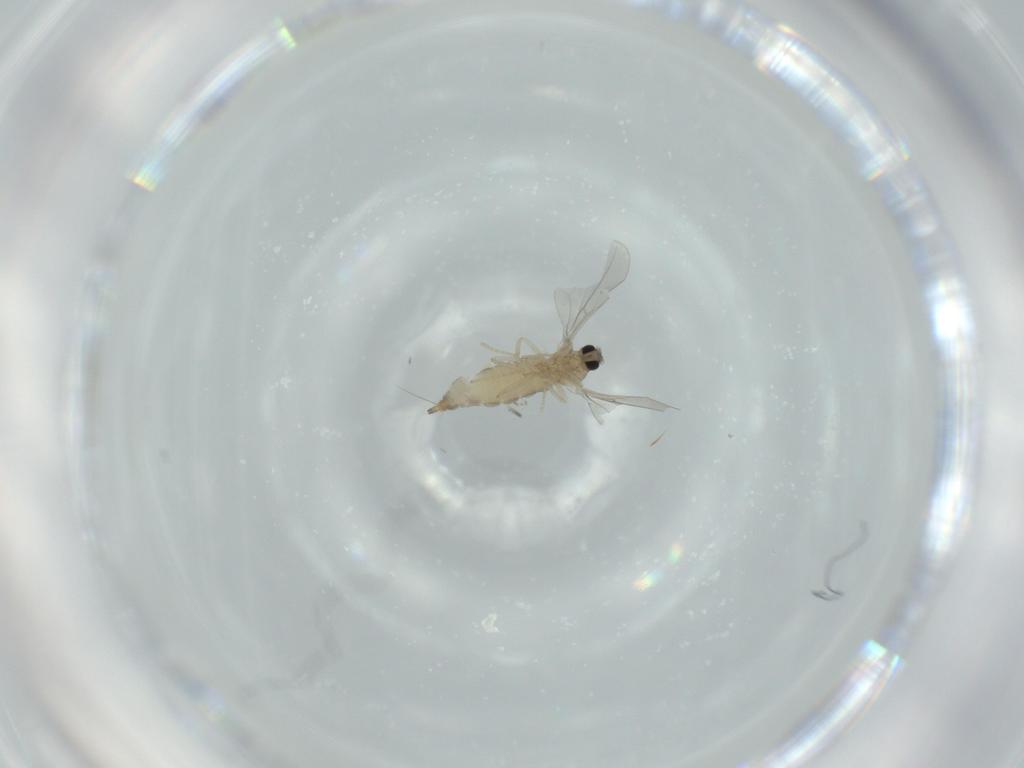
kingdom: Animalia
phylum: Arthropoda
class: Insecta
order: Diptera
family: Cecidomyiidae
